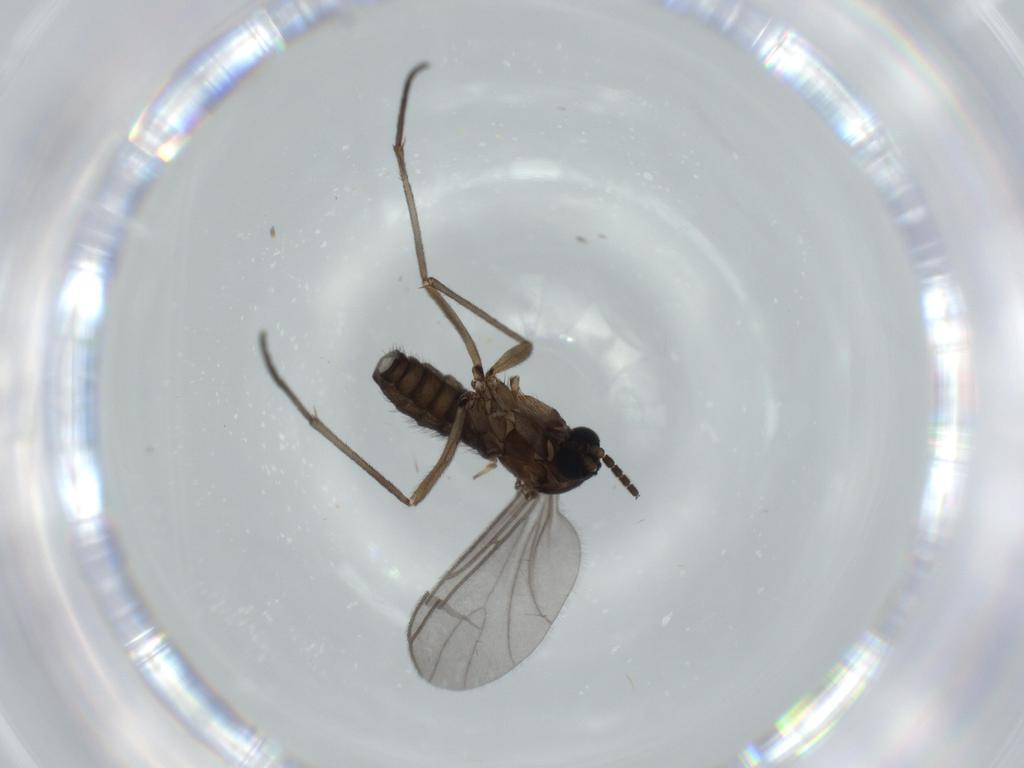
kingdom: Animalia
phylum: Arthropoda
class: Insecta
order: Diptera
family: Sciaridae
